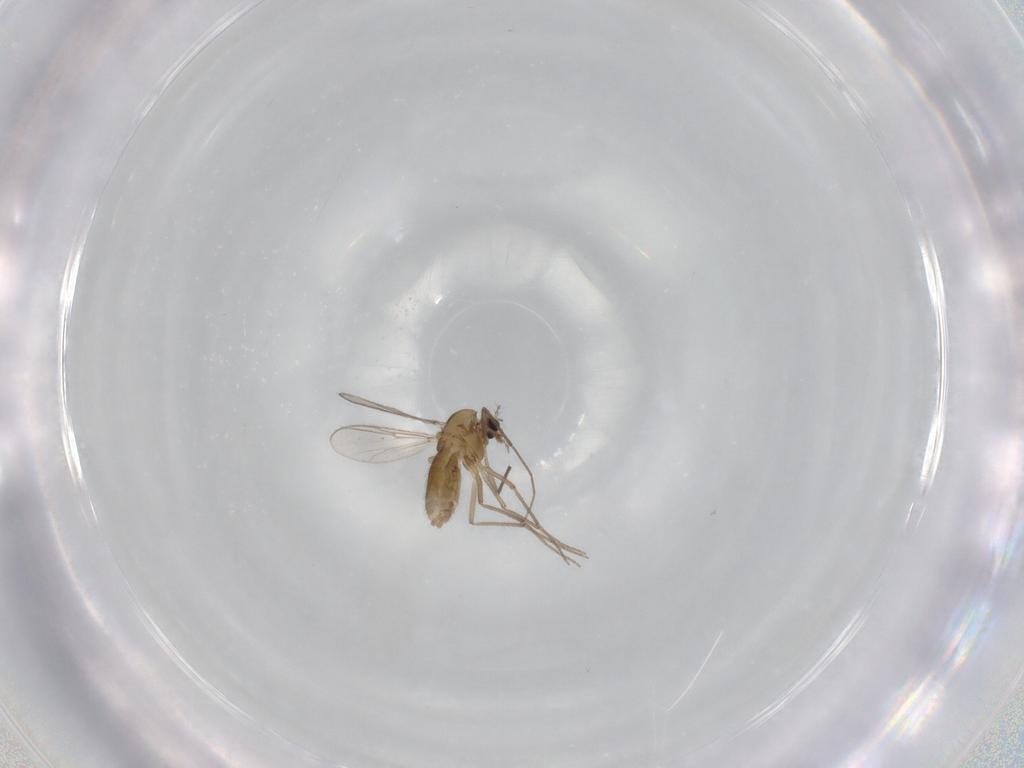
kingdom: Animalia
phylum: Arthropoda
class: Insecta
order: Diptera
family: Chironomidae
